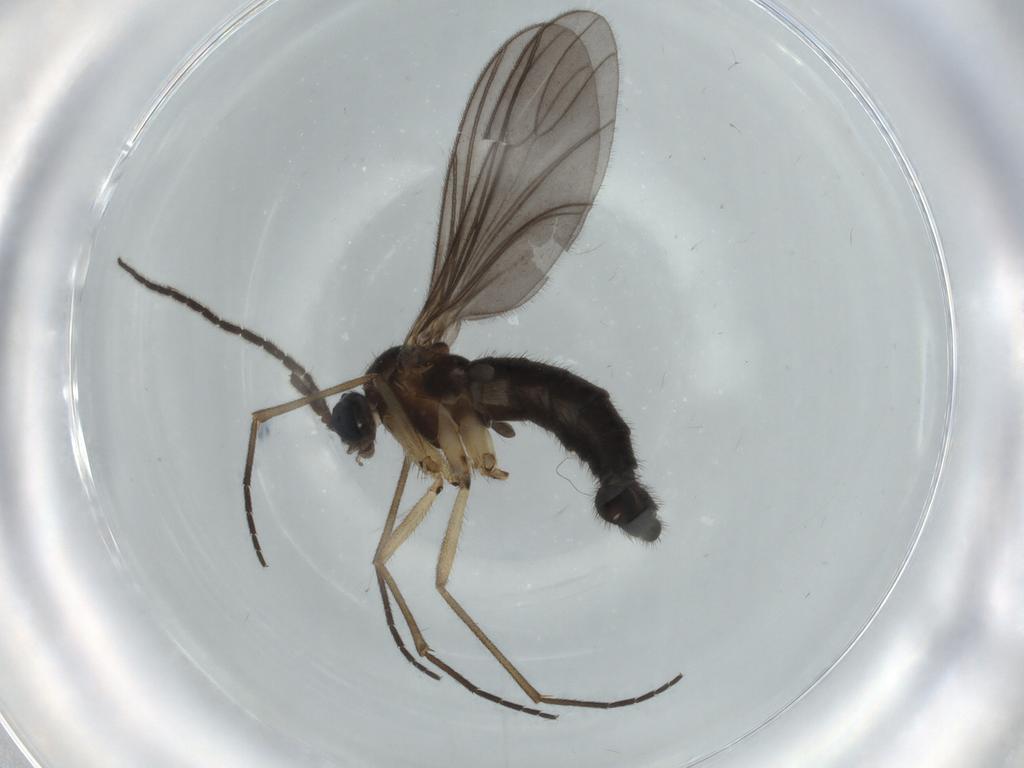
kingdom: Animalia
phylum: Arthropoda
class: Insecta
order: Diptera
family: Sciaridae
